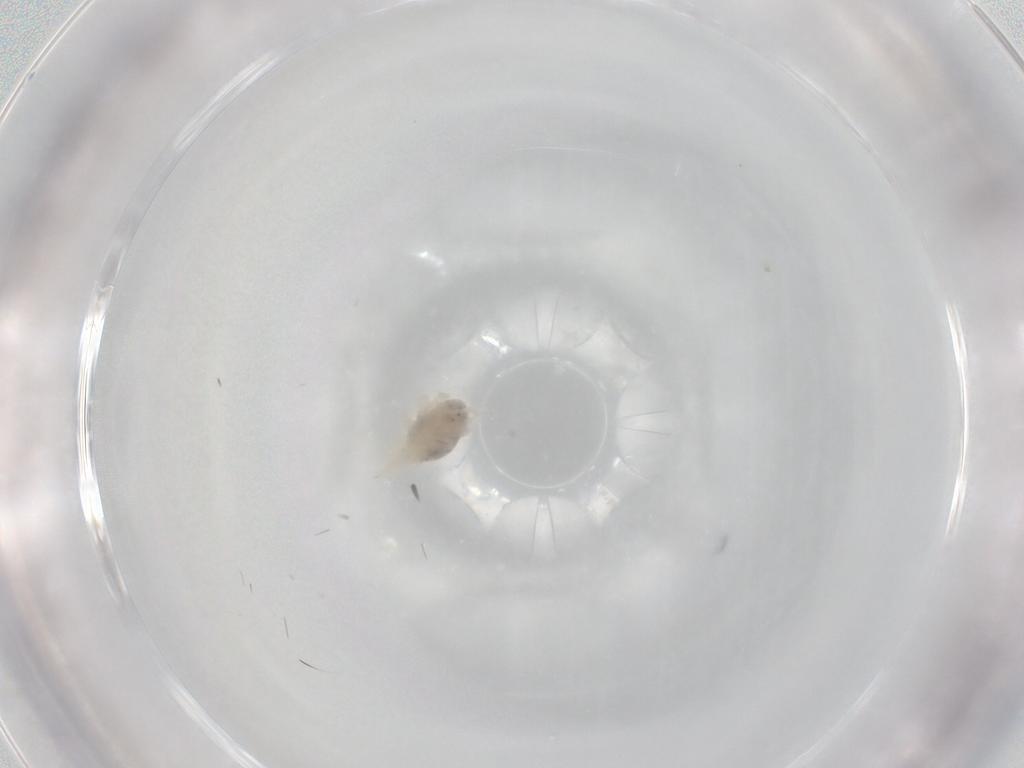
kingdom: Animalia
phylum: Arthropoda
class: Arachnida
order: Trombidiformes
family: Bdellidae
